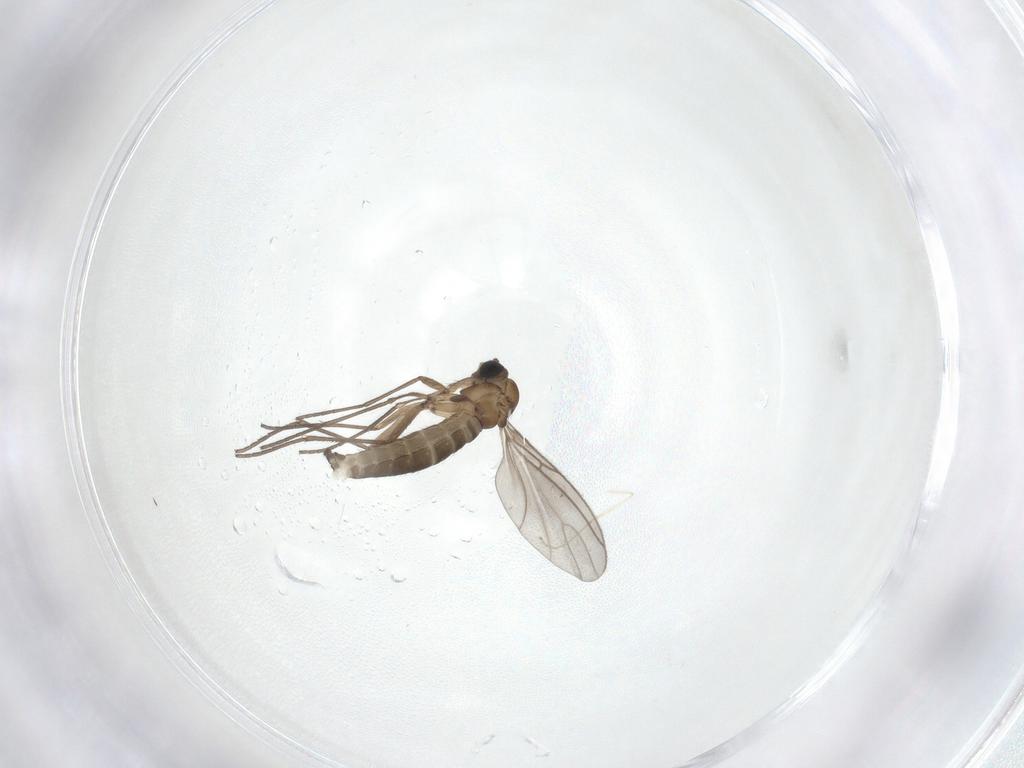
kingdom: Animalia
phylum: Arthropoda
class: Insecta
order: Diptera
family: Sciaridae
